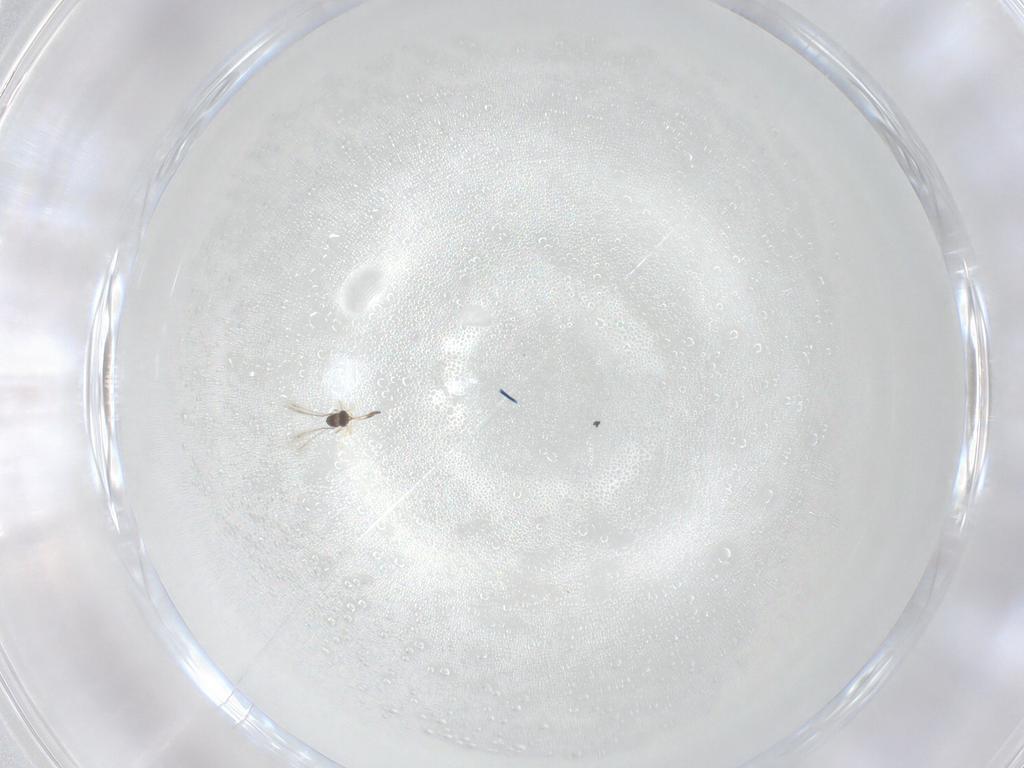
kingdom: Animalia
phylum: Arthropoda
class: Insecta
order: Hymenoptera
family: Mymaridae
